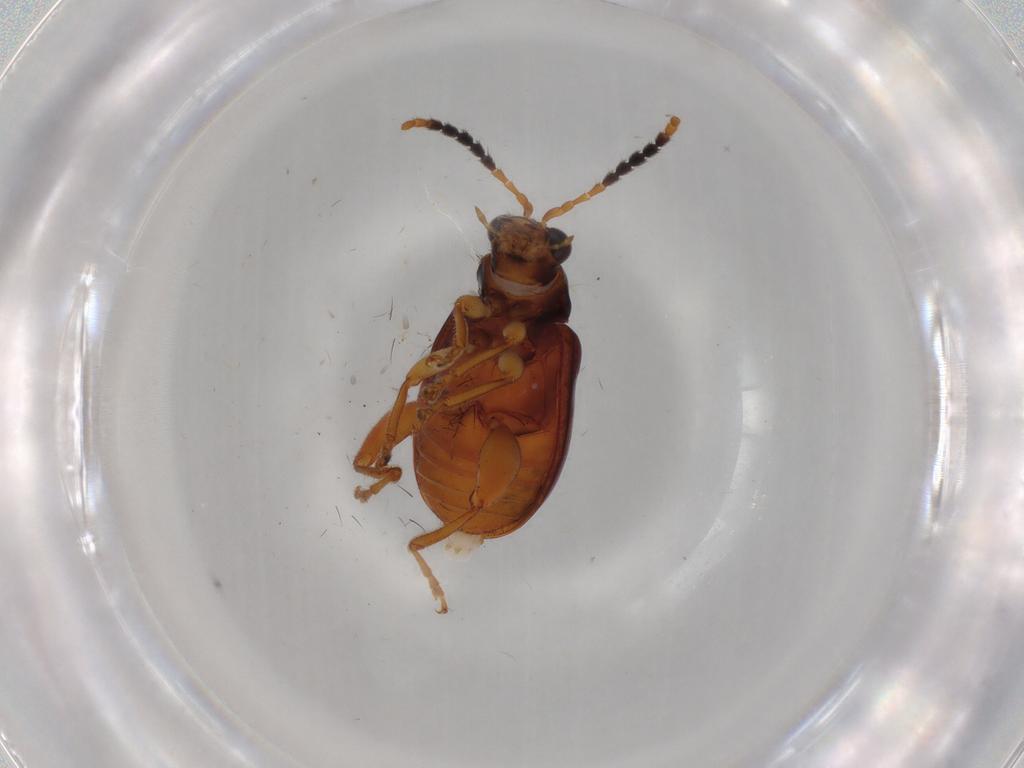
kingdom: Animalia
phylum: Arthropoda
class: Insecta
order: Coleoptera
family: Chrysomelidae
